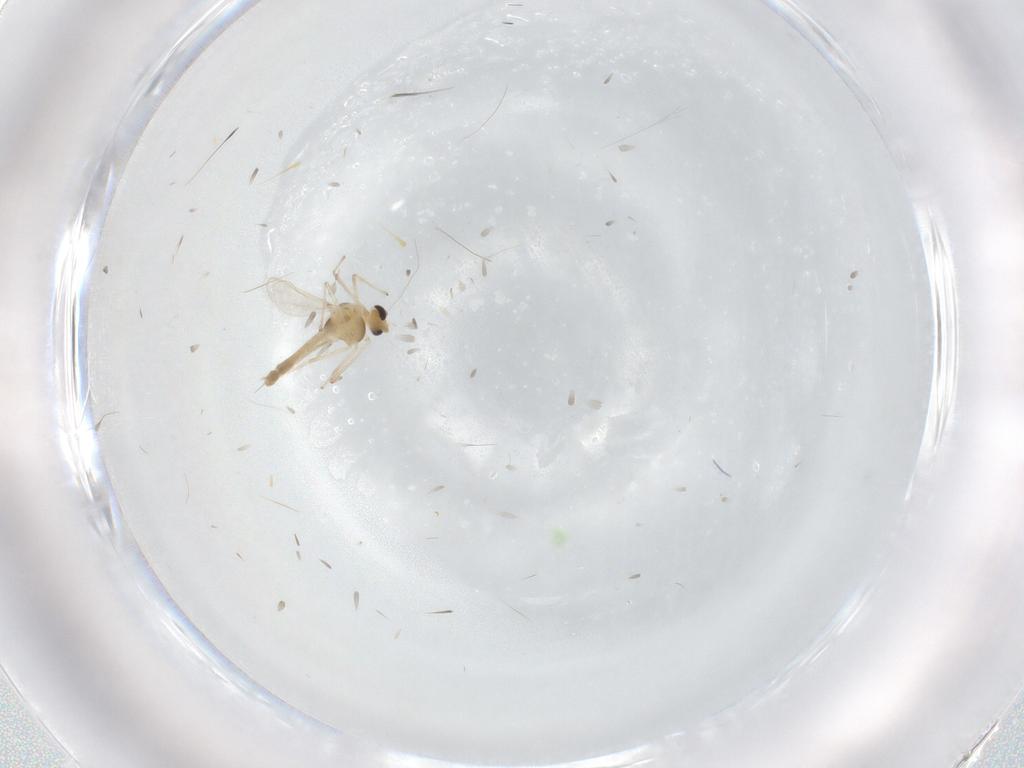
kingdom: Animalia
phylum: Arthropoda
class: Insecta
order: Diptera
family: Chironomidae
